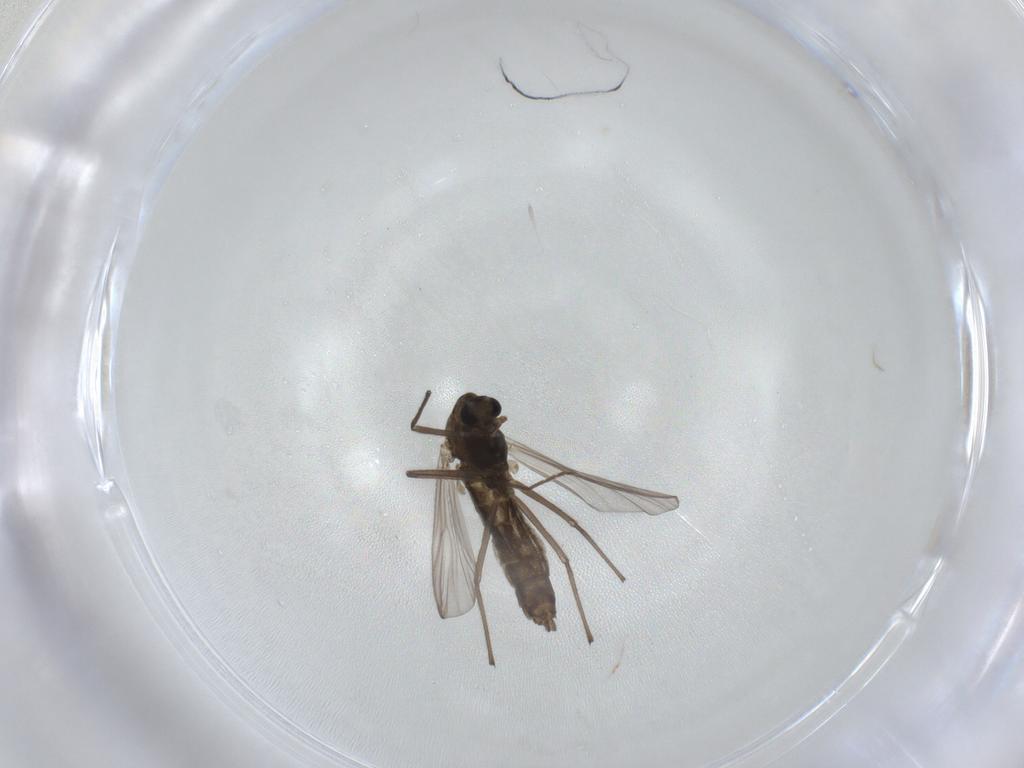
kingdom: Animalia
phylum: Arthropoda
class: Insecta
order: Diptera
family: Chironomidae
